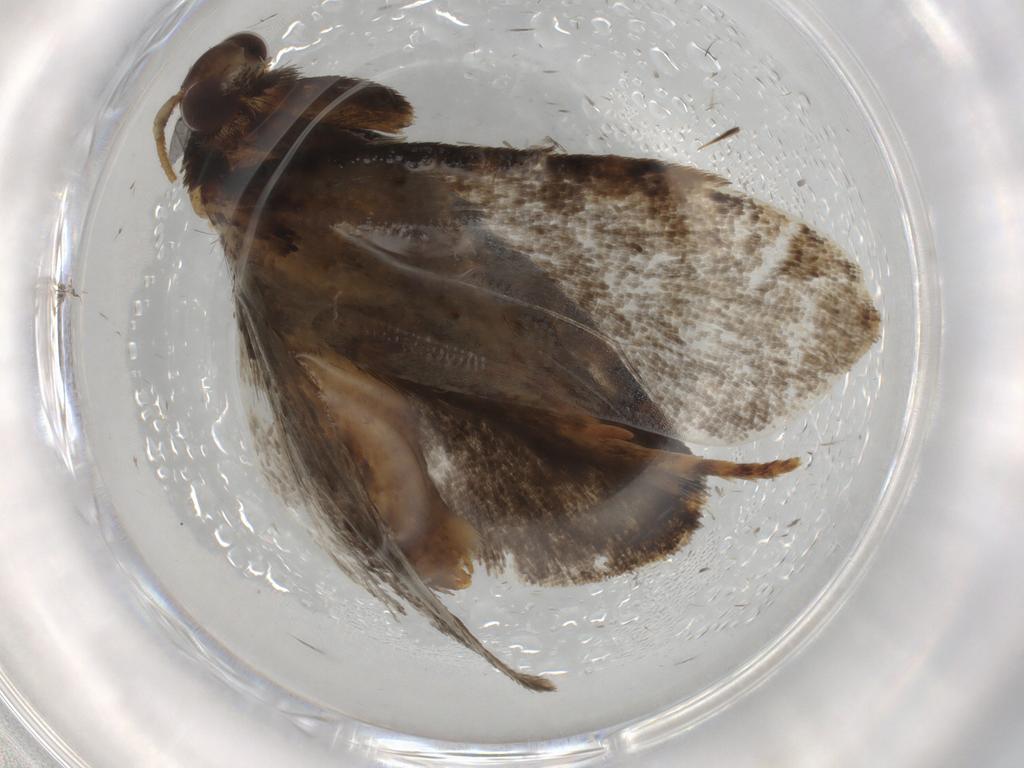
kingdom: Animalia
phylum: Arthropoda
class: Insecta
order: Lepidoptera
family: Tineidae
